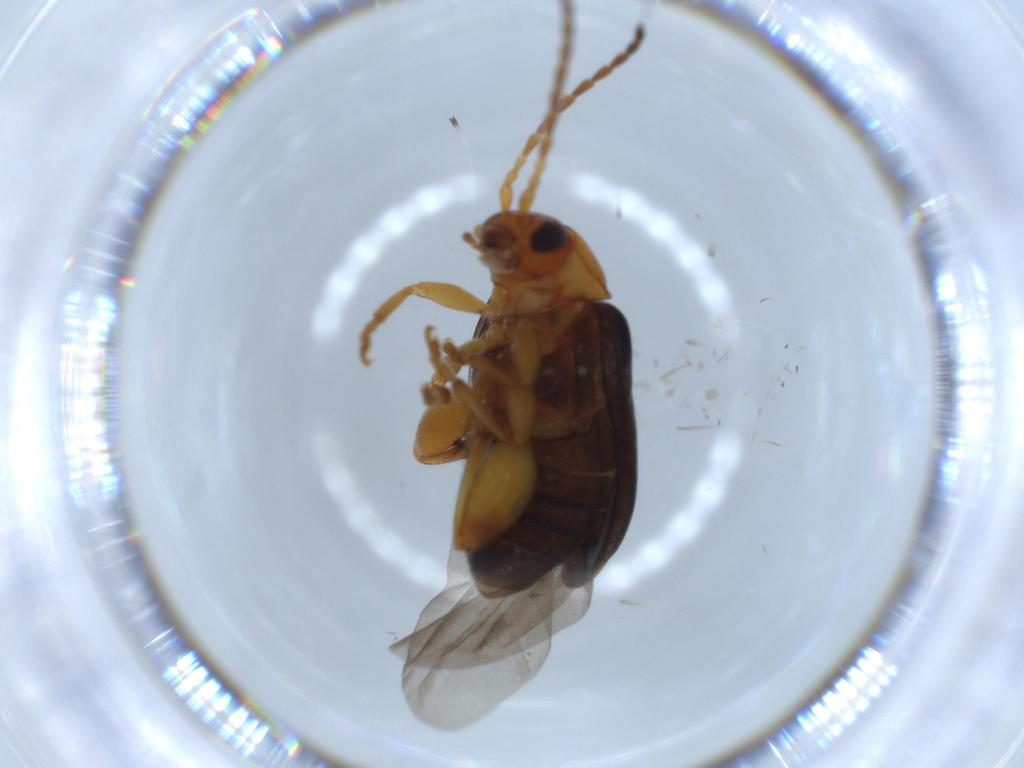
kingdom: Animalia
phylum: Arthropoda
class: Insecta
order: Coleoptera
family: Chrysomelidae
